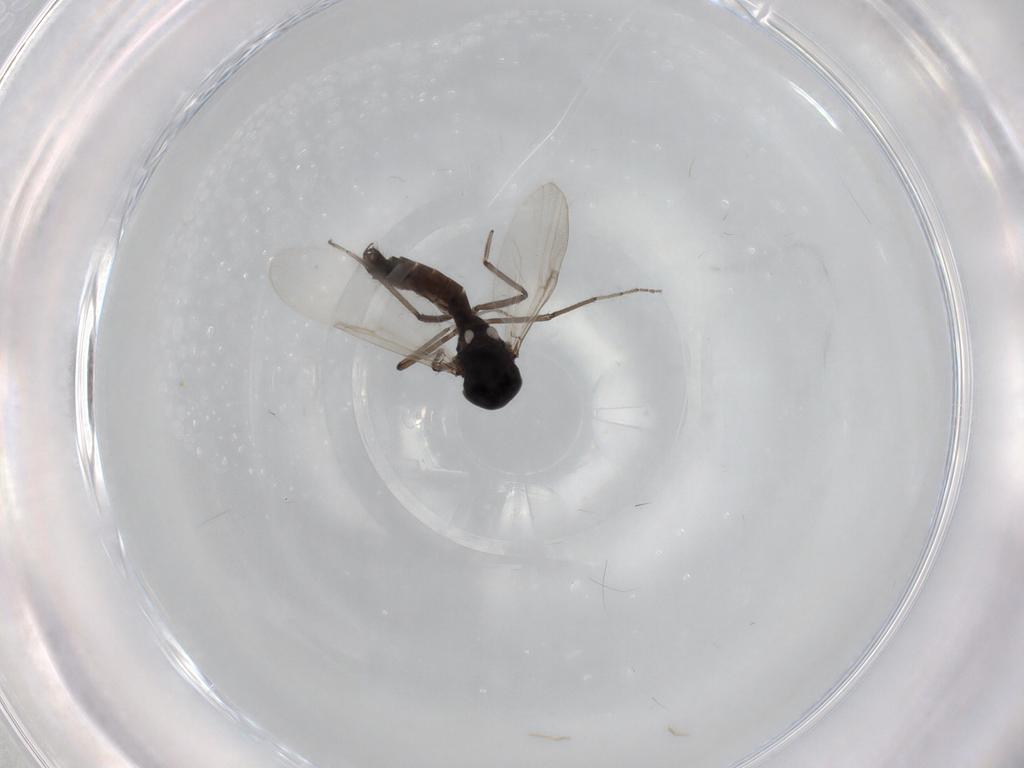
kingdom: Animalia
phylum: Arthropoda
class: Insecta
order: Diptera
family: Ceratopogonidae
